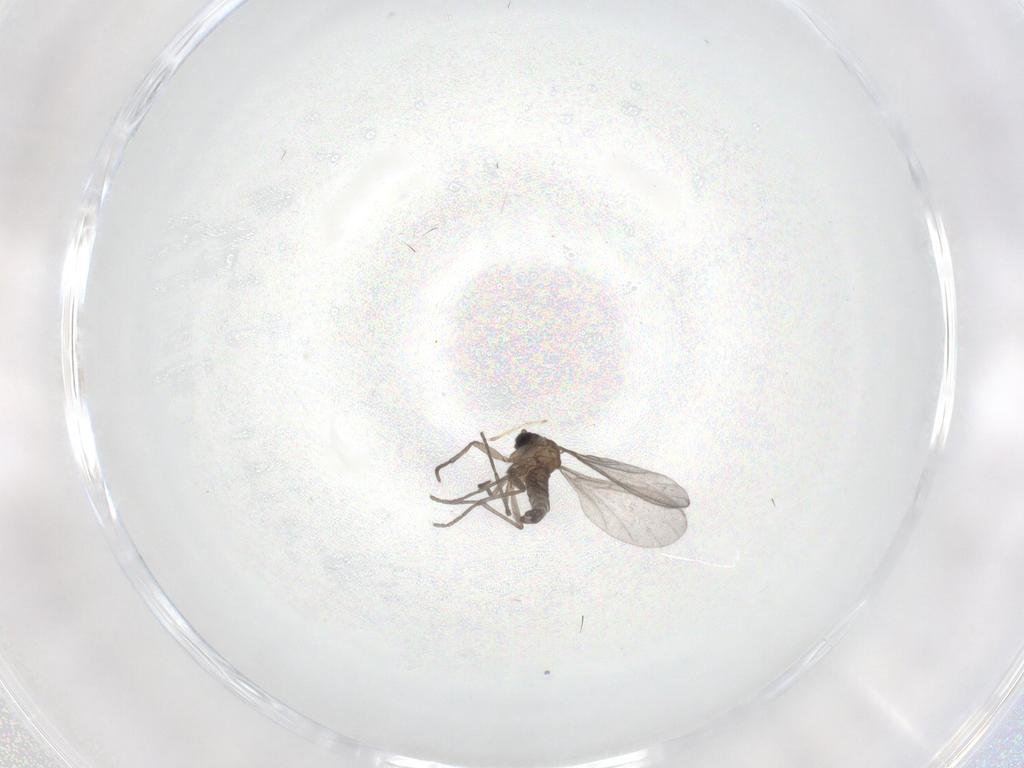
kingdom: Animalia
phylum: Arthropoda
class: Insecta
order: Diptera
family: Sciaridae
